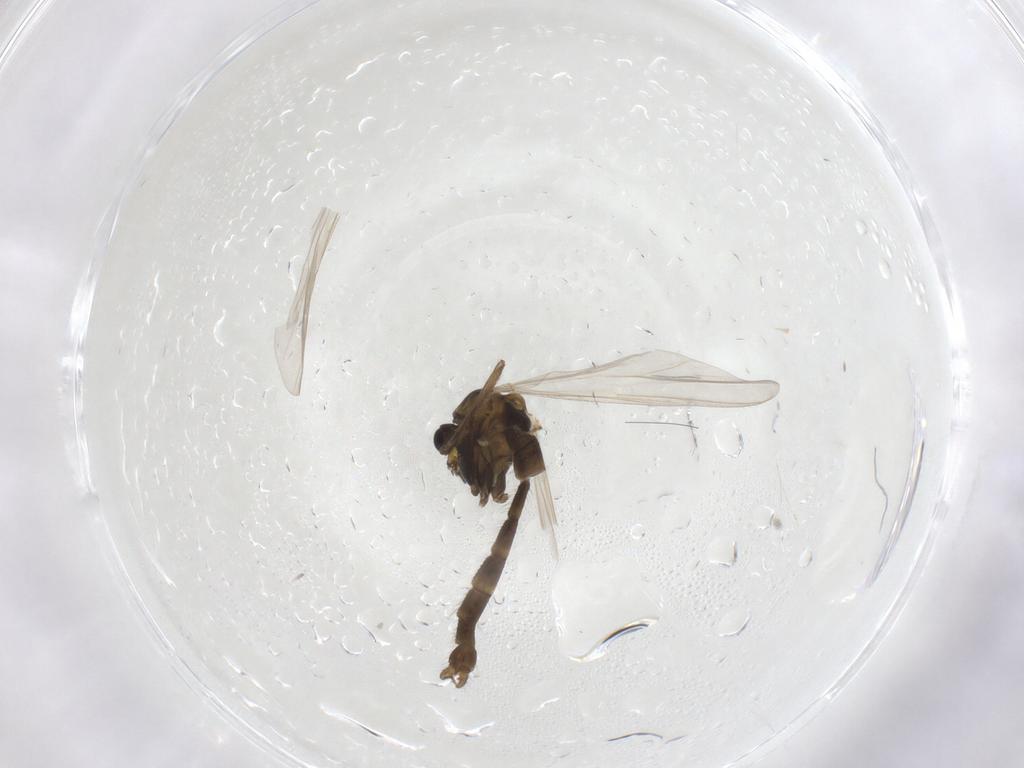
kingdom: Animalia
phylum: Arthropoda
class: Insecta
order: Diptera
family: Chironomidae
